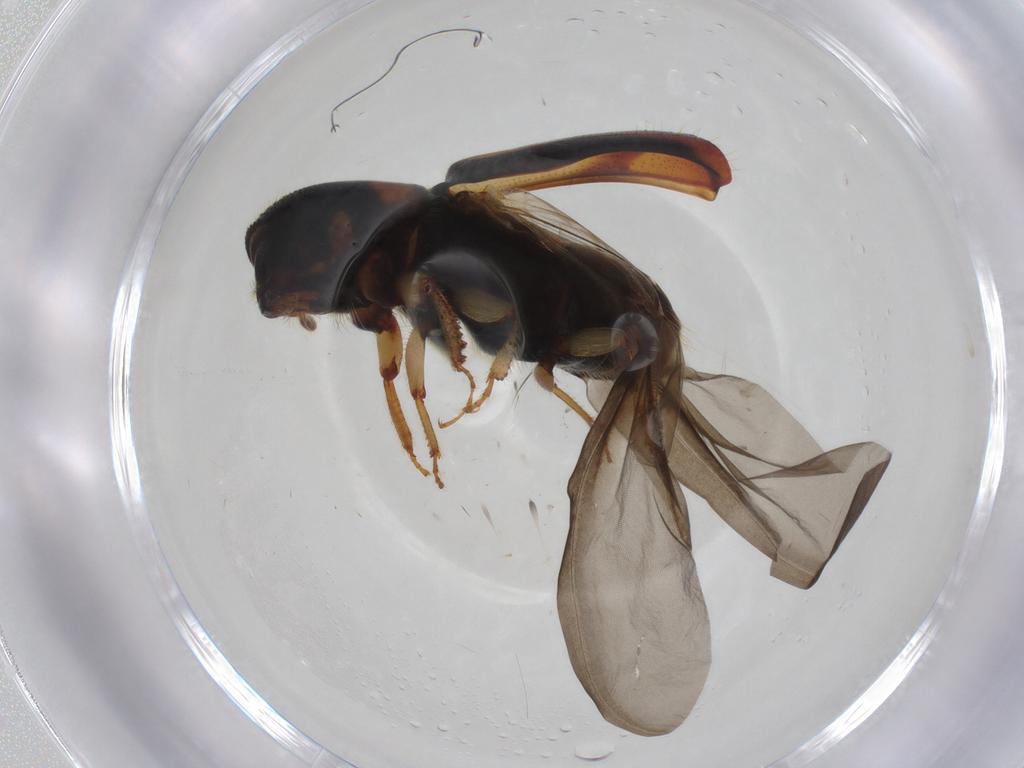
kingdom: Animalia
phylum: Arthropoda
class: Insecta
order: Coleoptera
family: Curculionidae
